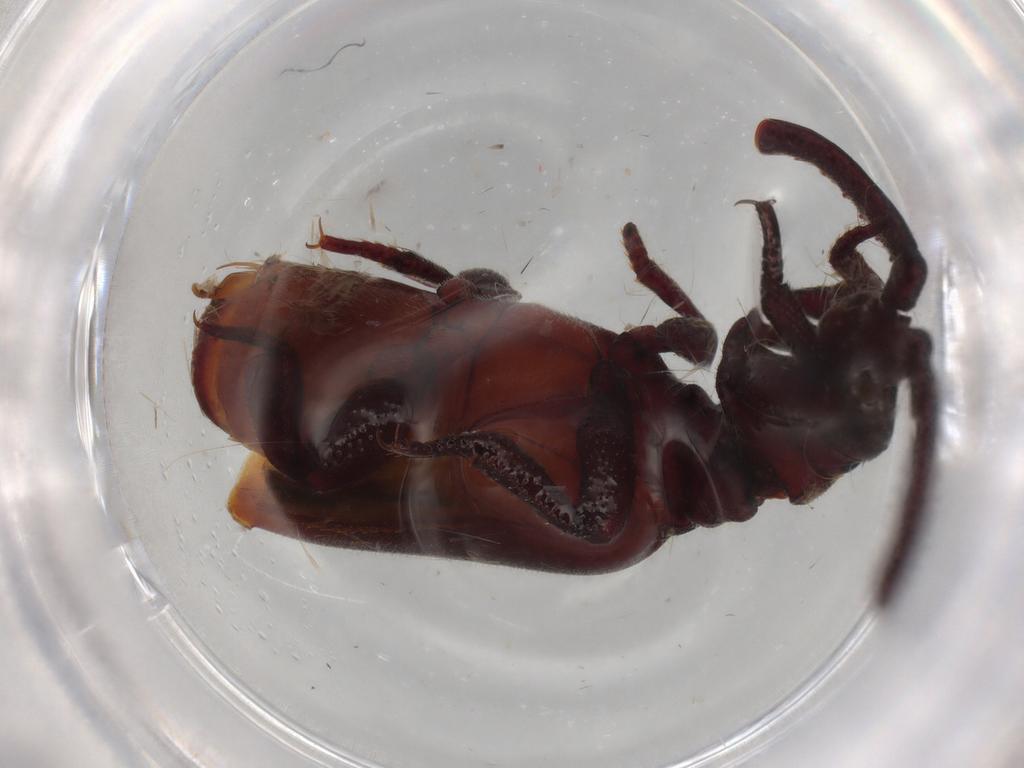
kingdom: Animalia
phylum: Arthropoda
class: Insecta
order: Coleoptera
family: Carabidae
